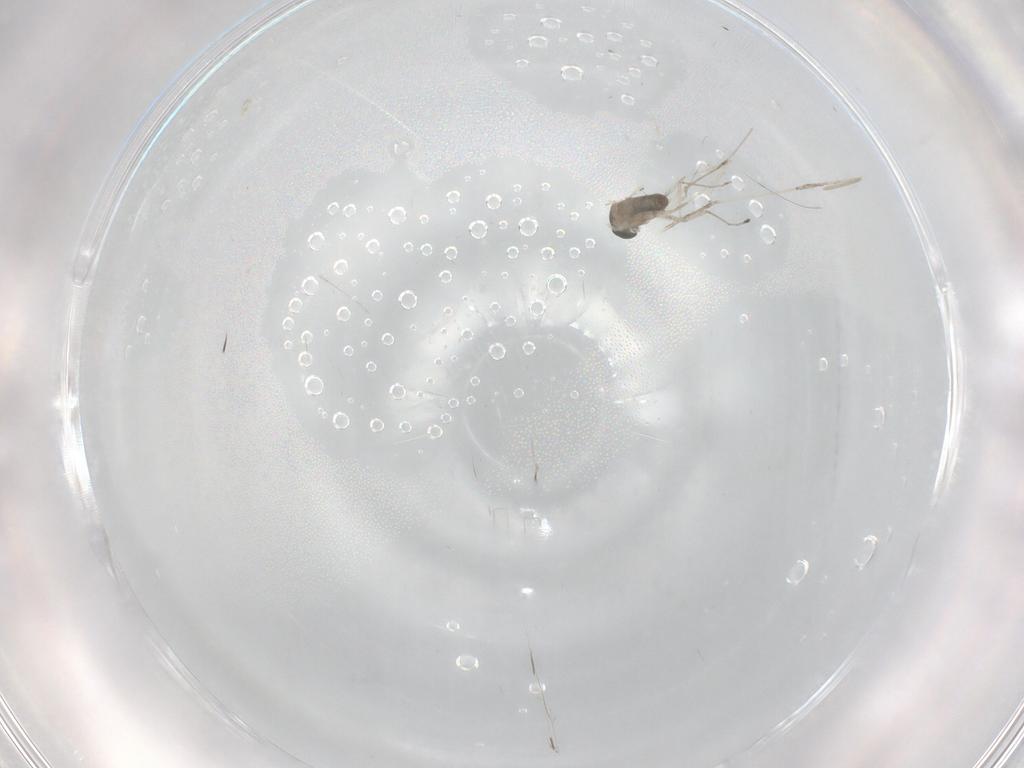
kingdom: Animalia
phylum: Arthropoda
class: Insecta
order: Diptera
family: Cecidomyiidae
